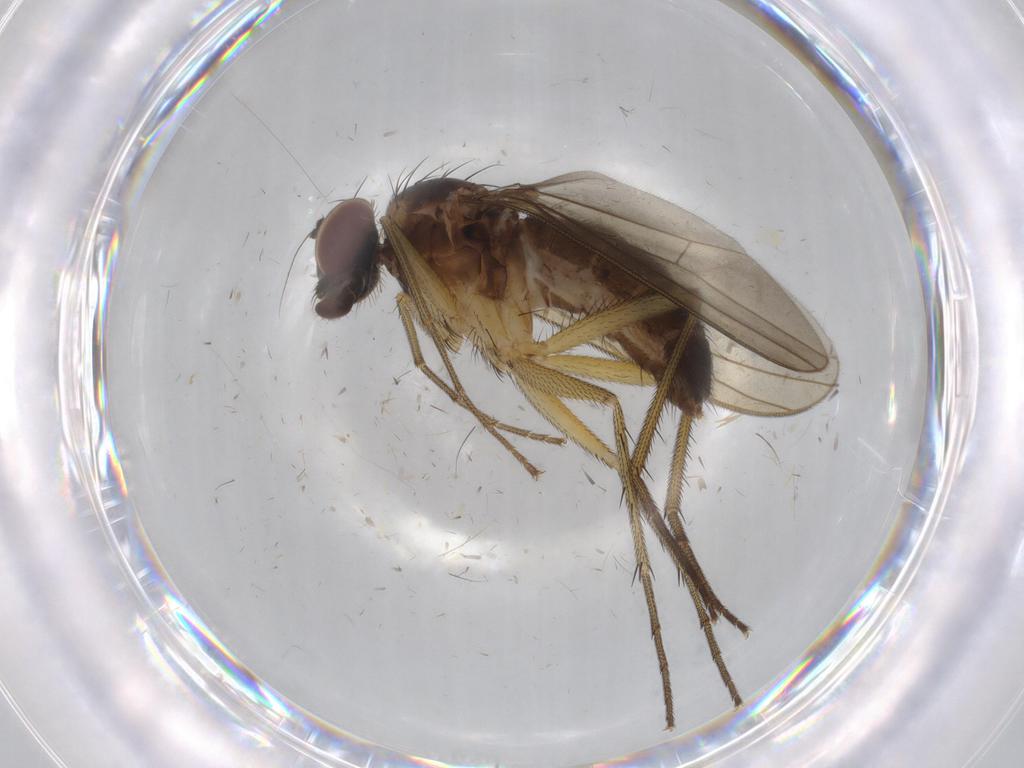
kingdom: Animalia
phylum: Arthropoda
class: Insecta
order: Diptera
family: Dolichopodidae
